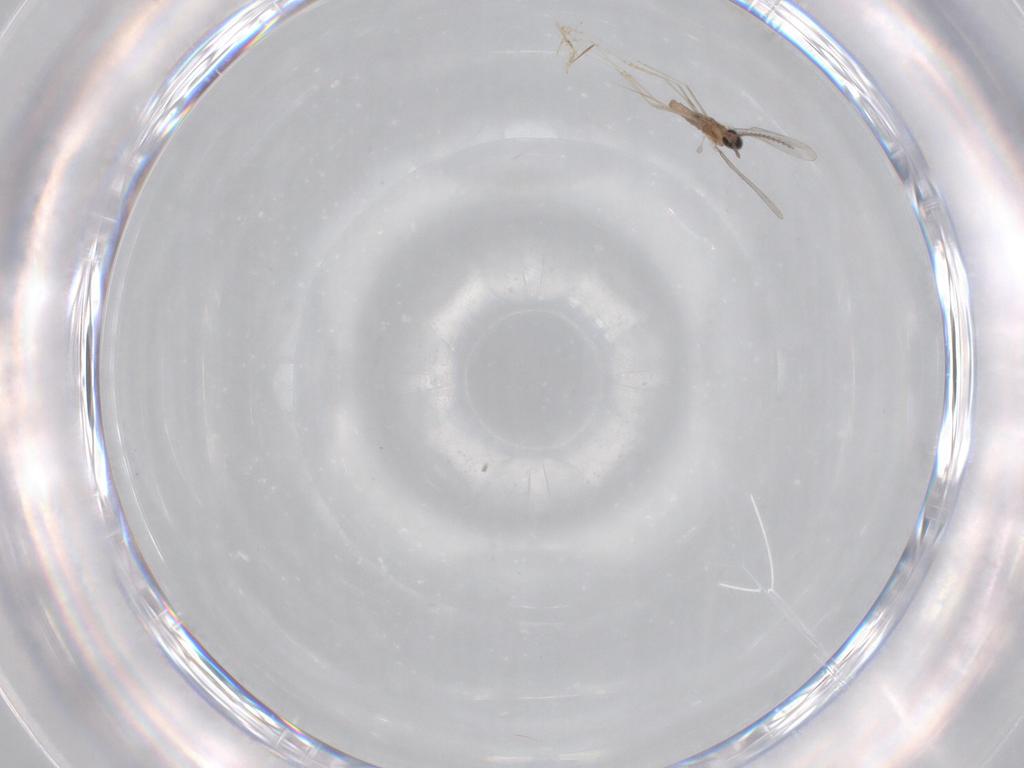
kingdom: Animalia
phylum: Arthropoda
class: Insecta
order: Diptera
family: Cecidomyiidae
